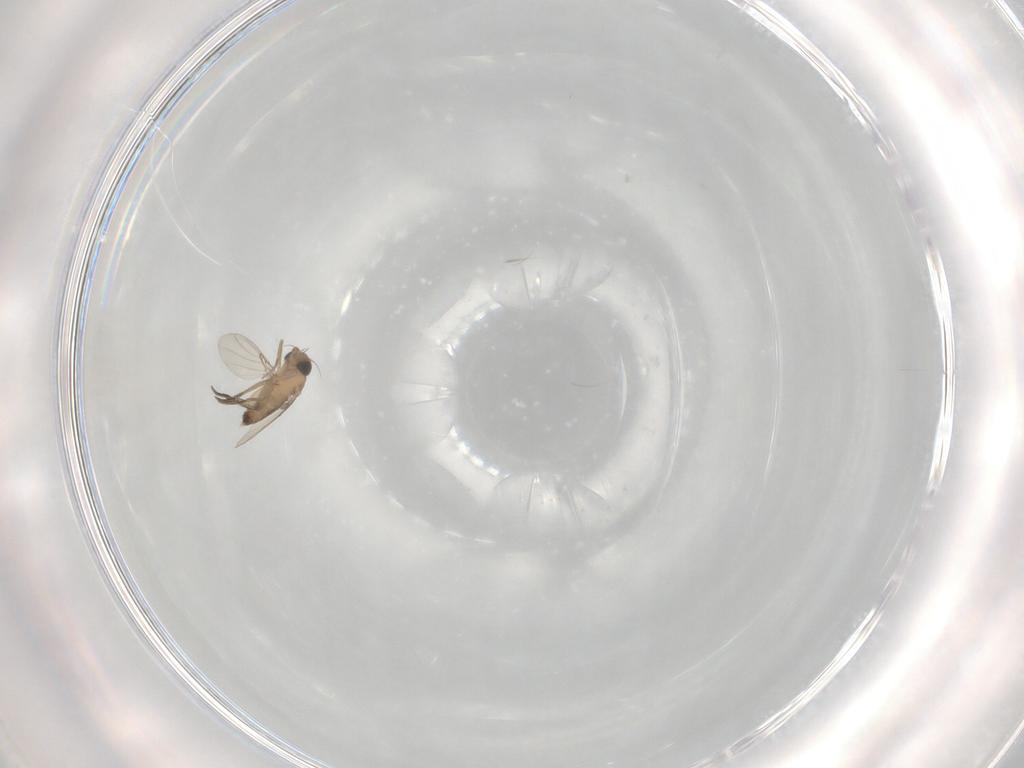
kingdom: Animalia
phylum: Arthropoda
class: Insecta
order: Diptera
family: Phoridae
